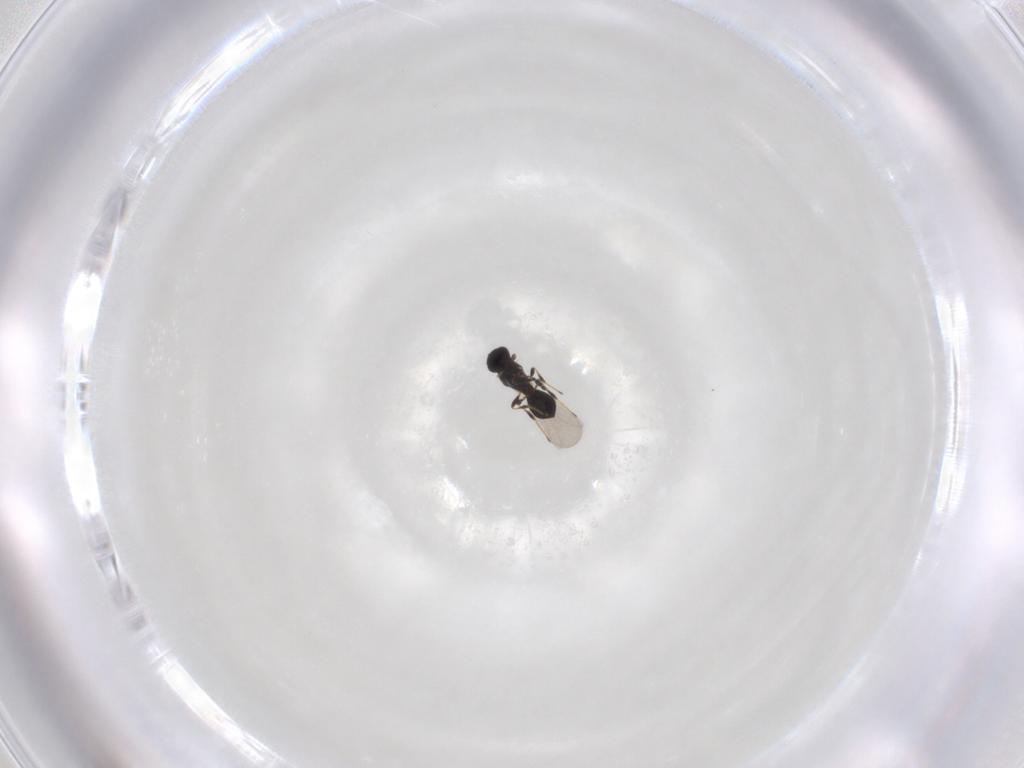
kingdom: Animalia
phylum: Arthropoda
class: Insecta
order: Hymenoptera
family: Platygastridae
